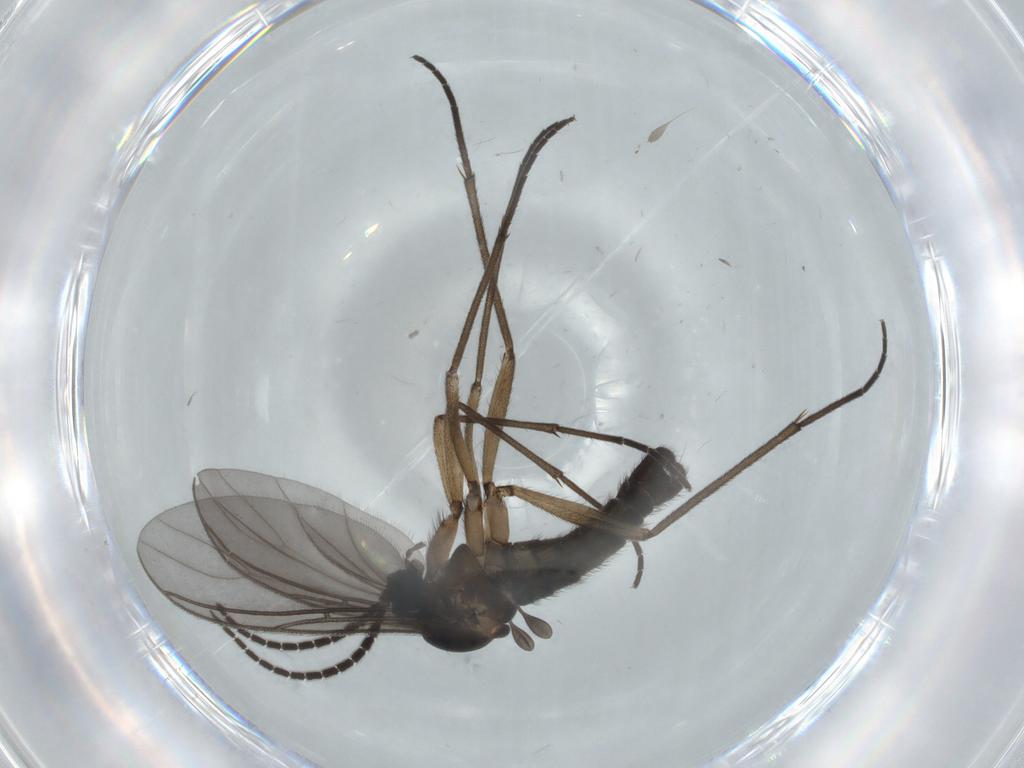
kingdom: Animalia
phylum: Arthropoda
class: Insecta
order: Diptera
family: Sciaridae
